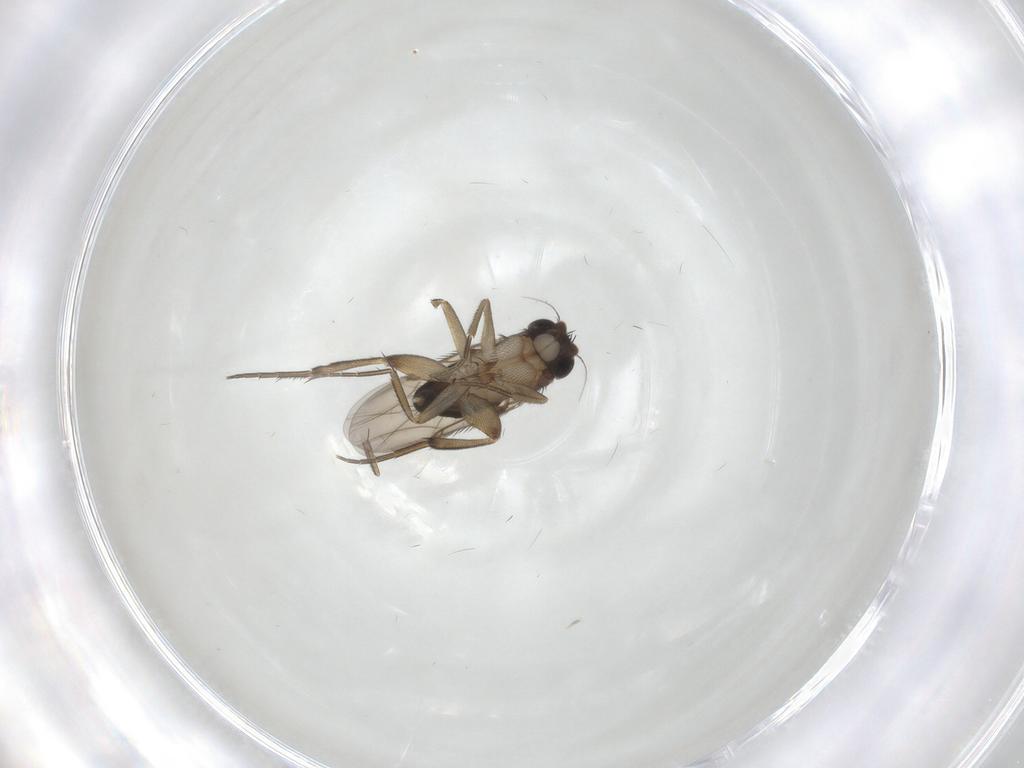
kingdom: Animalia
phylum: Arthropoda
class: Insecta
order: Diptera
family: Phoridae
